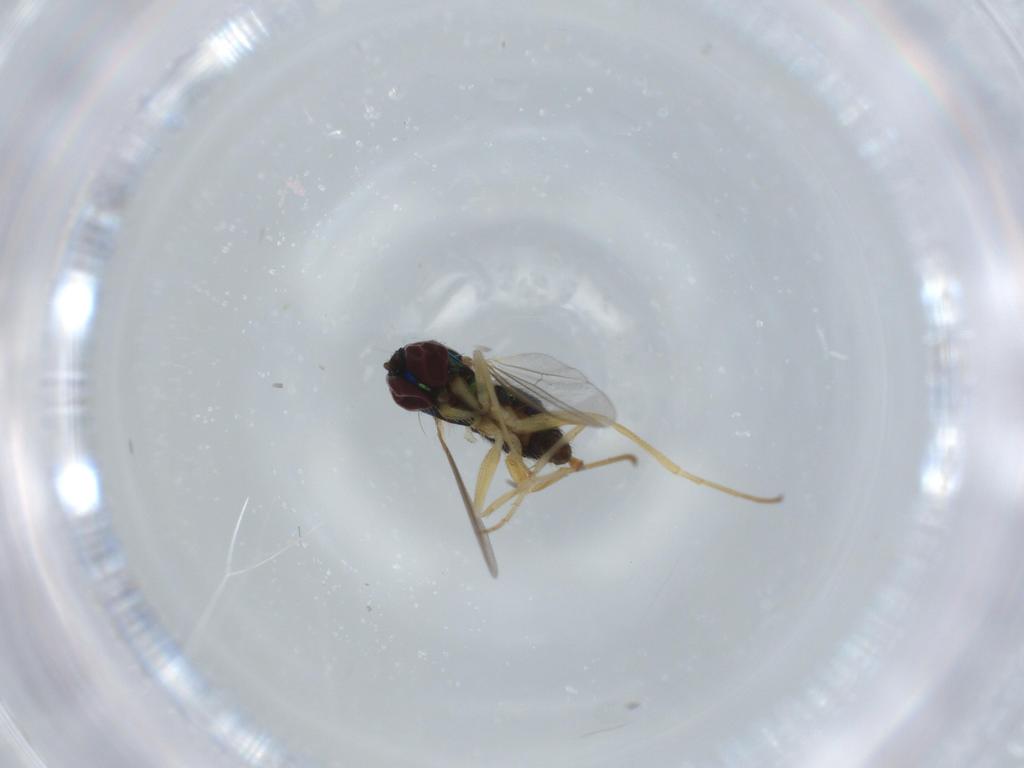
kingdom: Animalia
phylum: Arthropoda
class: Insecta
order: Diptera
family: Dolichopodidae
